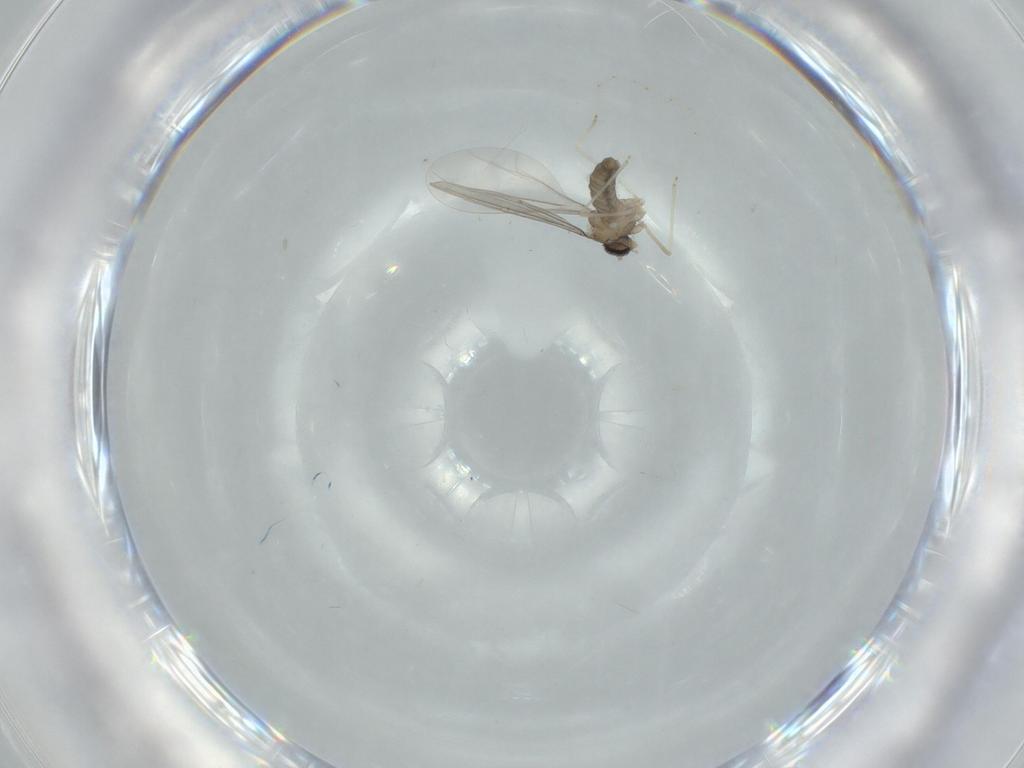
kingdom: Animalia
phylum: Arthropoda
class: Insecta
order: Diptera
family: Cecidomyiidae
